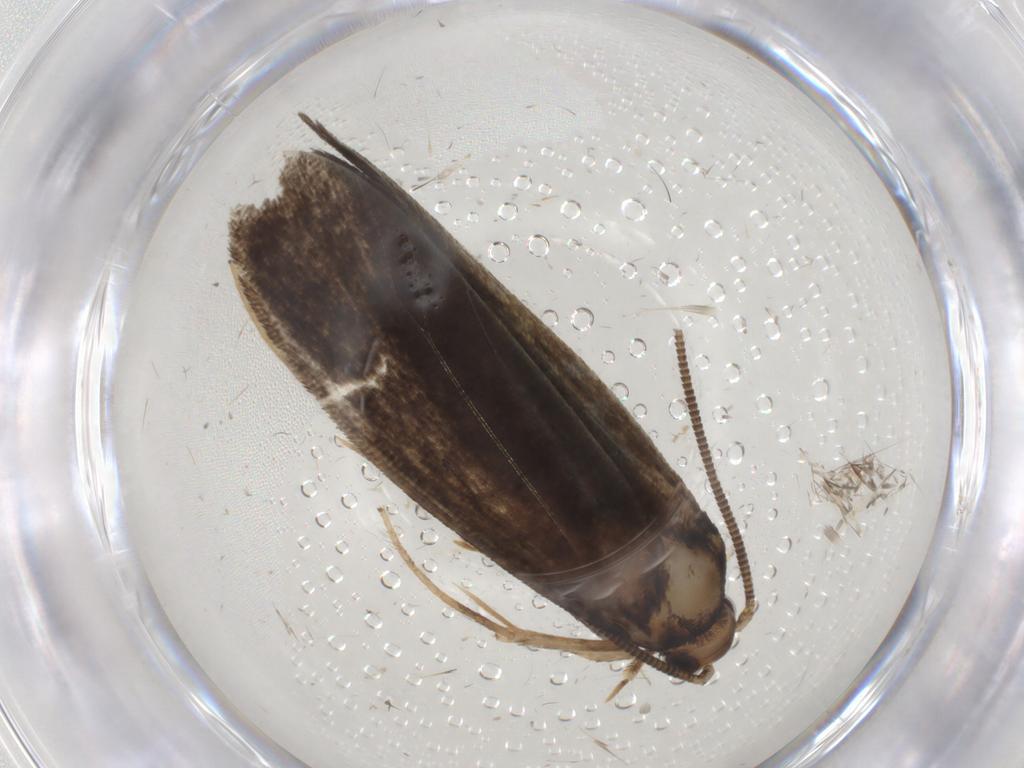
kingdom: Animalia
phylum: Arthropoda
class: Insecta
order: Lepidoptera
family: Tineidae
